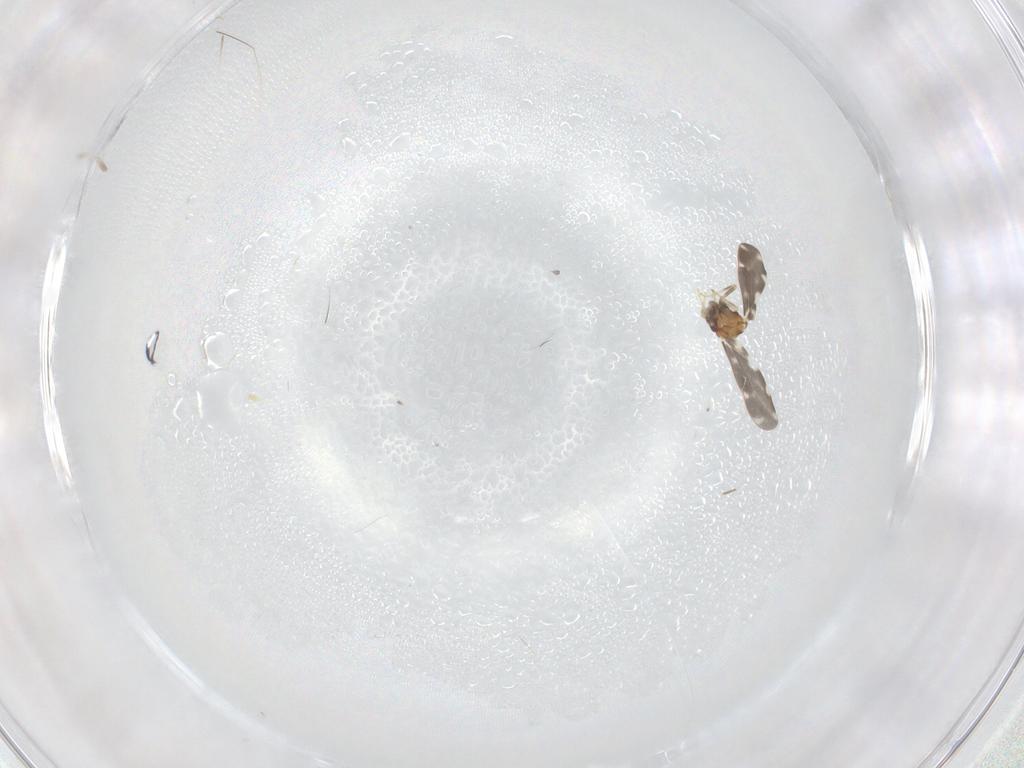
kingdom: Animalia
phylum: Arthropoda
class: Insecta
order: Hemiptera
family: Aleyrodidae
